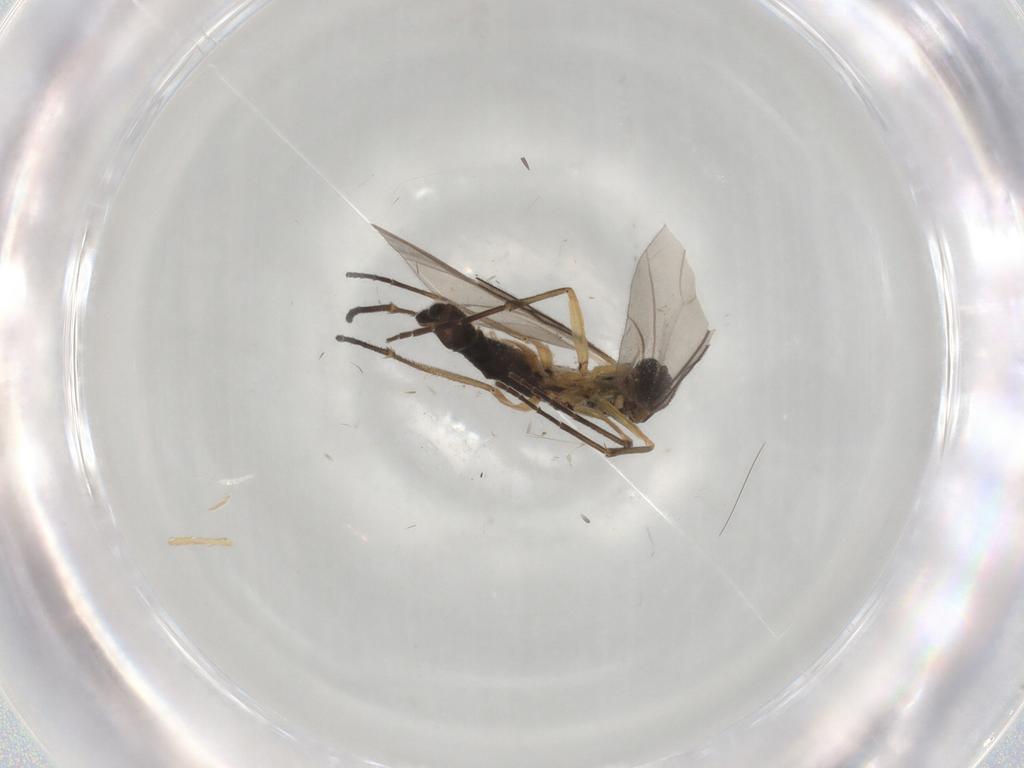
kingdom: Animalia
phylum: Arthropoda
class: Insecta
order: Diptera
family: Sciaridae
